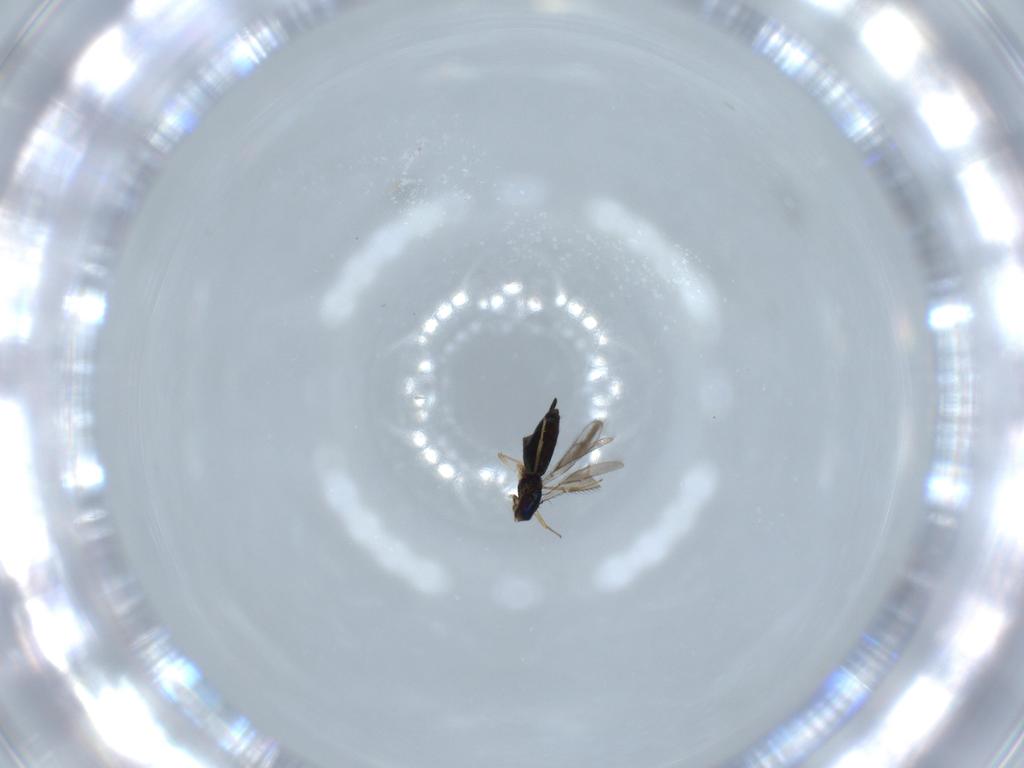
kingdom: Animalia
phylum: Arthropoda
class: Insecta
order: Hymenoptera
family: Pteromalidae
